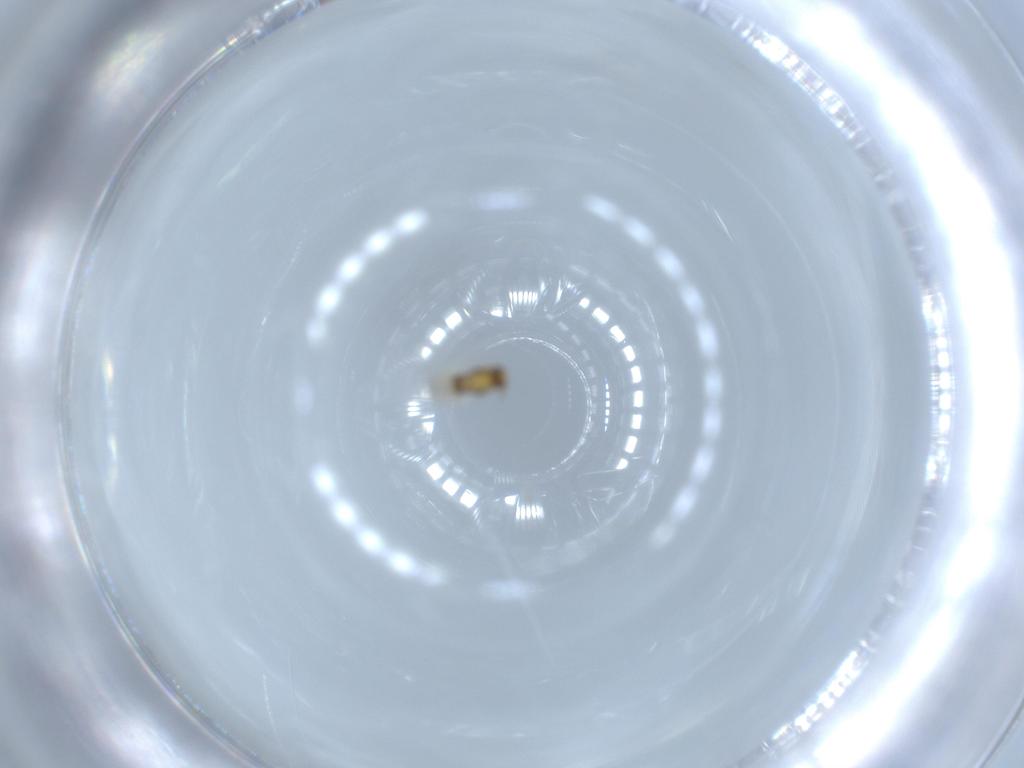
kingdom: Animalia
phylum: Arthropoda
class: Insecta
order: Hymenoptera
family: Aphelinidae
